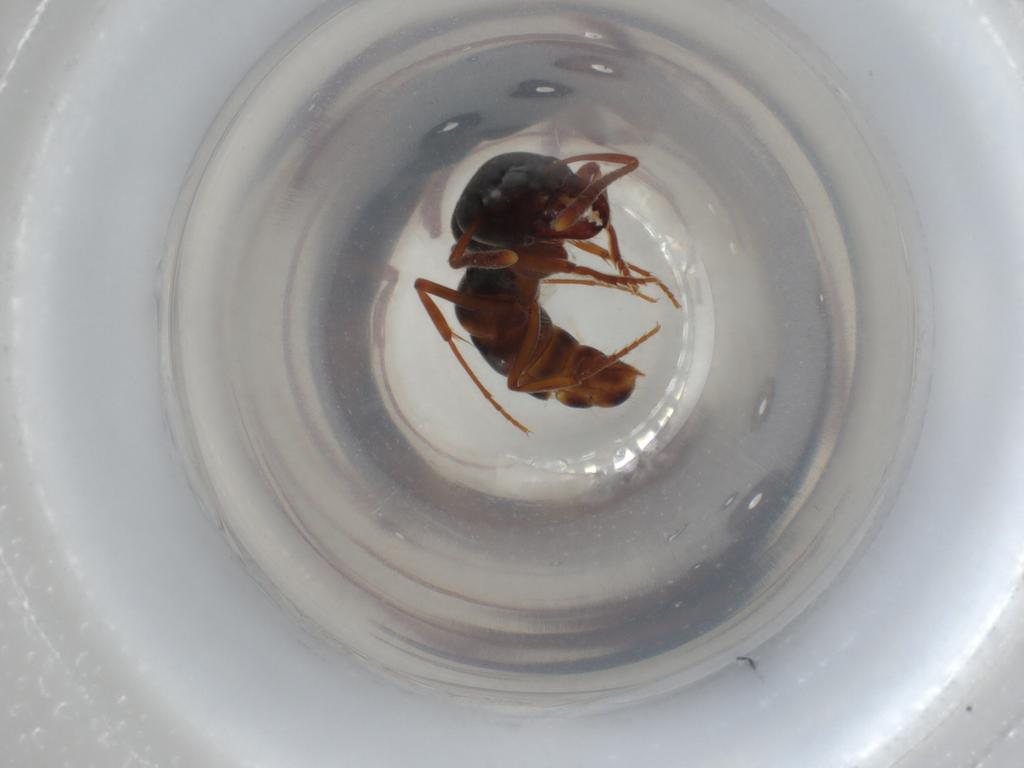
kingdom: Animalia
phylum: Arthropoda
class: Insecta
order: Hymenoptera
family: Formicidae
